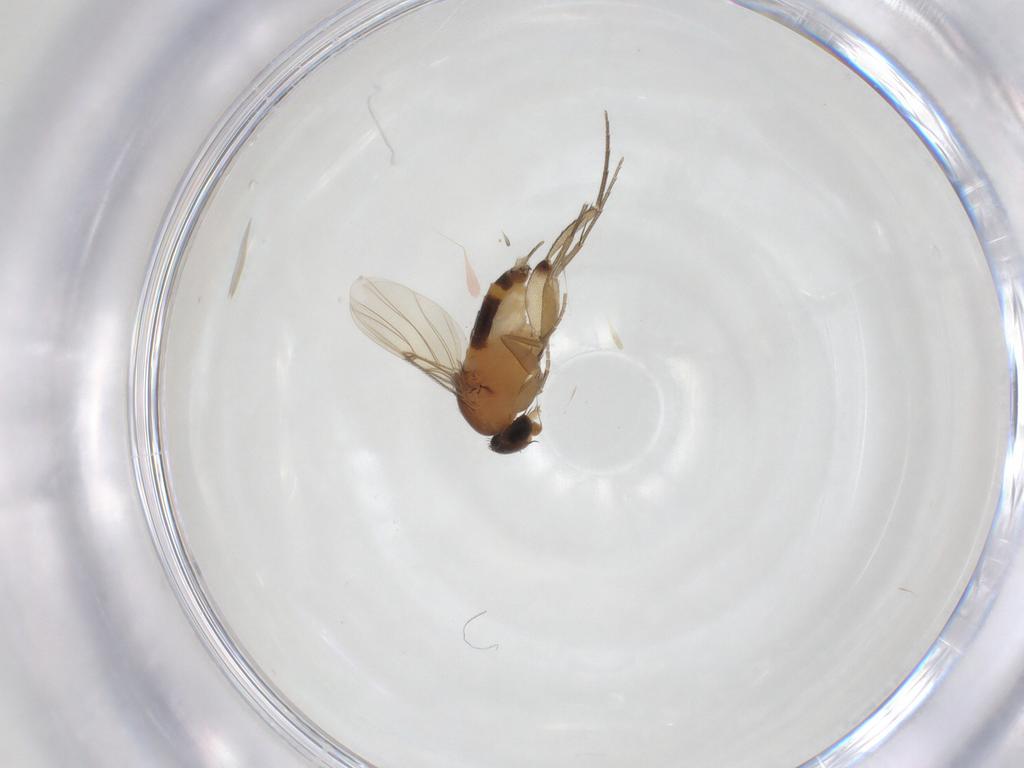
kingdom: Animalia
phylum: Arthropoda
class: Insecta
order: Diptera
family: Phoridae
